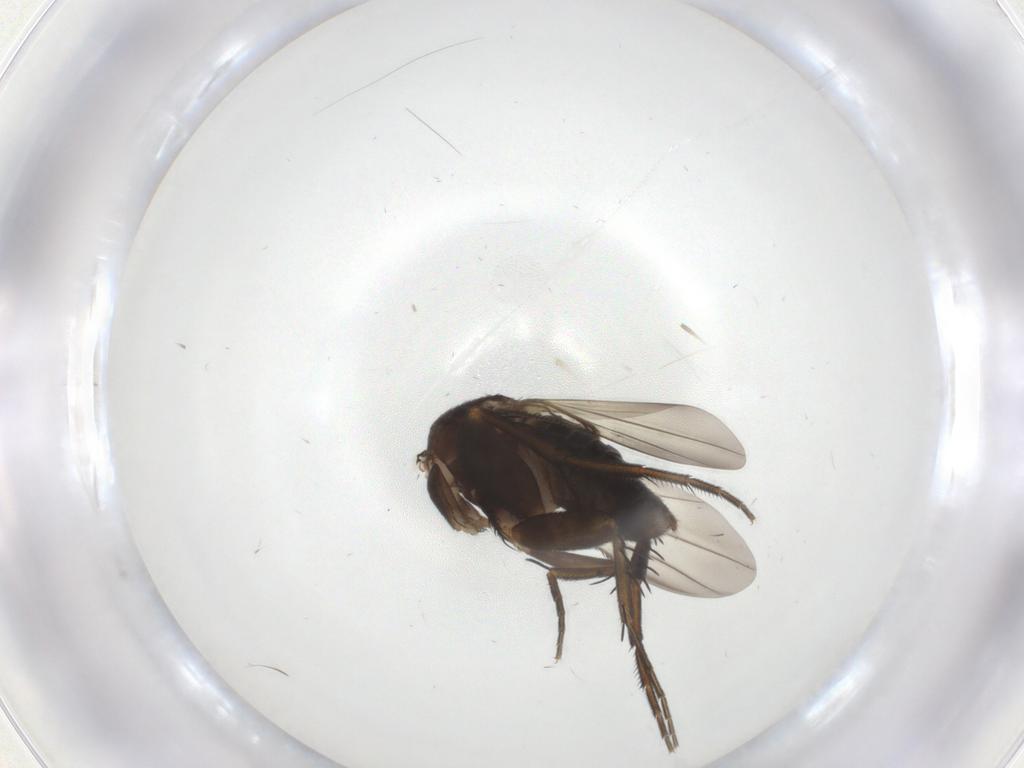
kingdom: Animalia
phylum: Arthropoda
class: Insecta
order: Diptera
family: Phoridae
